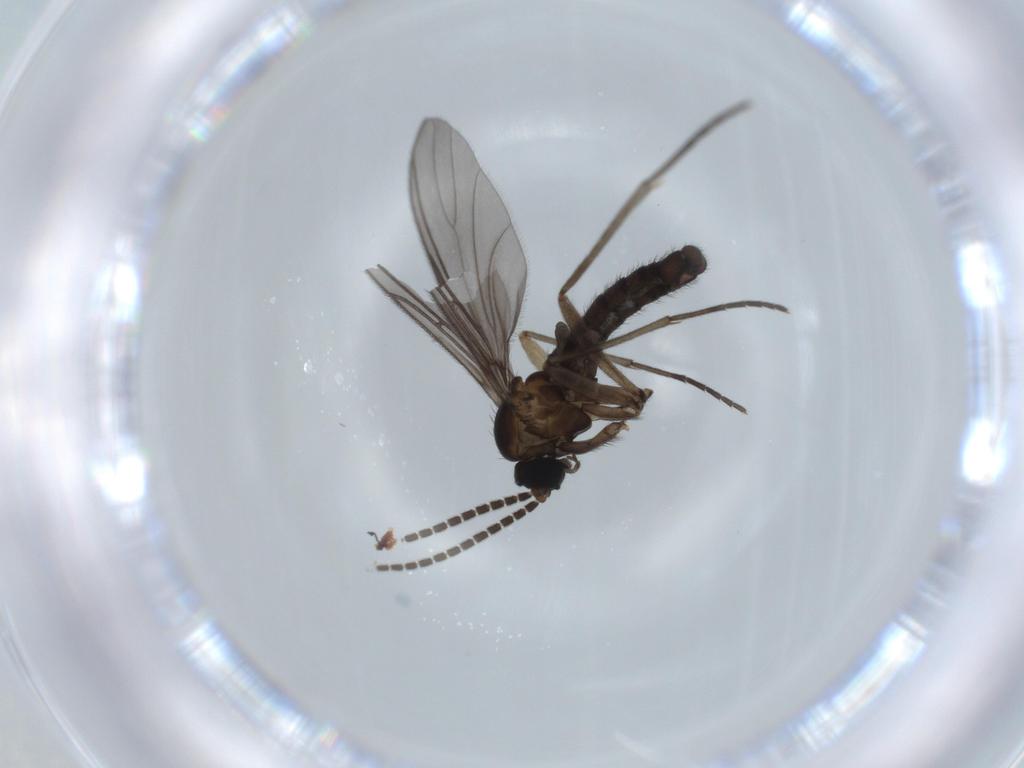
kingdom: Animalia
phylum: Arthropoda
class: Insecta
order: Diptera
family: Sciaridae
